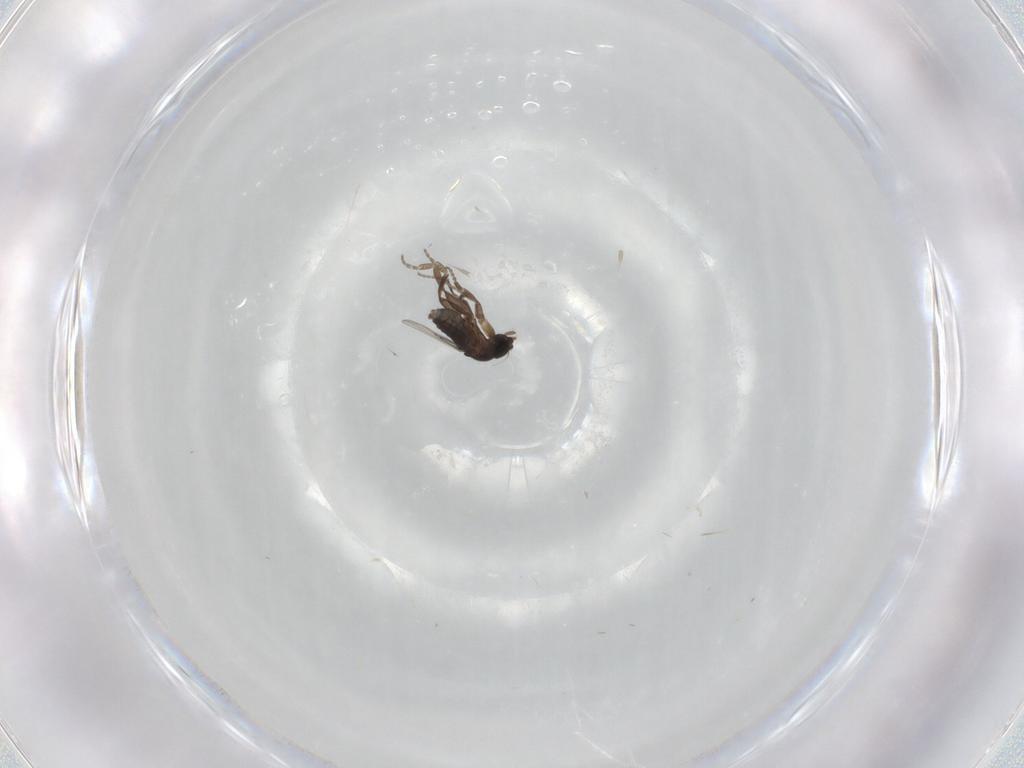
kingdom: Animalia
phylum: Arthropoda
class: Insecta
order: Diptera
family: Phoridae
